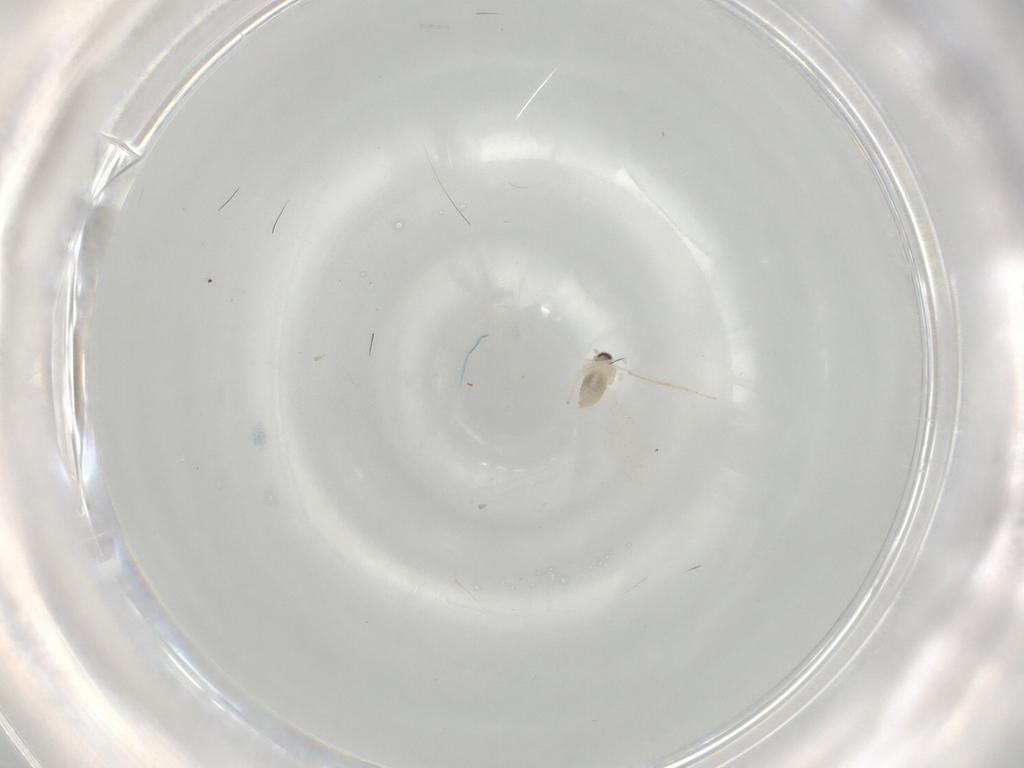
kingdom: Animalia
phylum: Arthropoda
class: Insecta
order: Diptera
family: Cecidomyiidae
